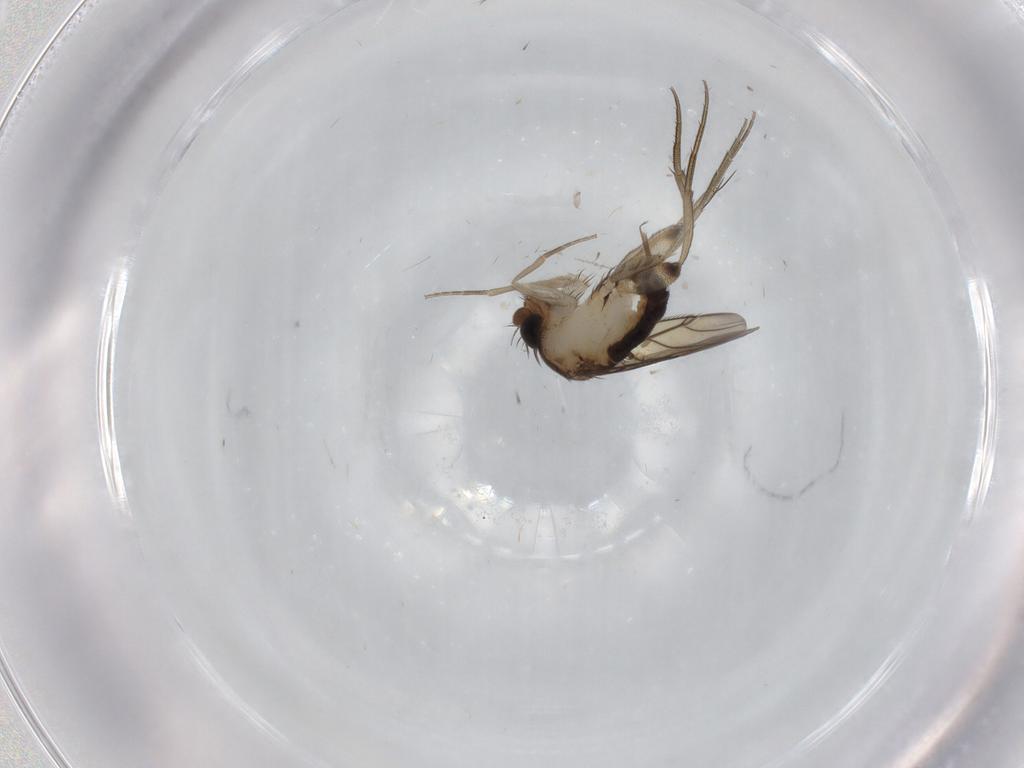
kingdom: Animalia
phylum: Arthropoda
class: Insecta
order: Diptera
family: Phoridae
